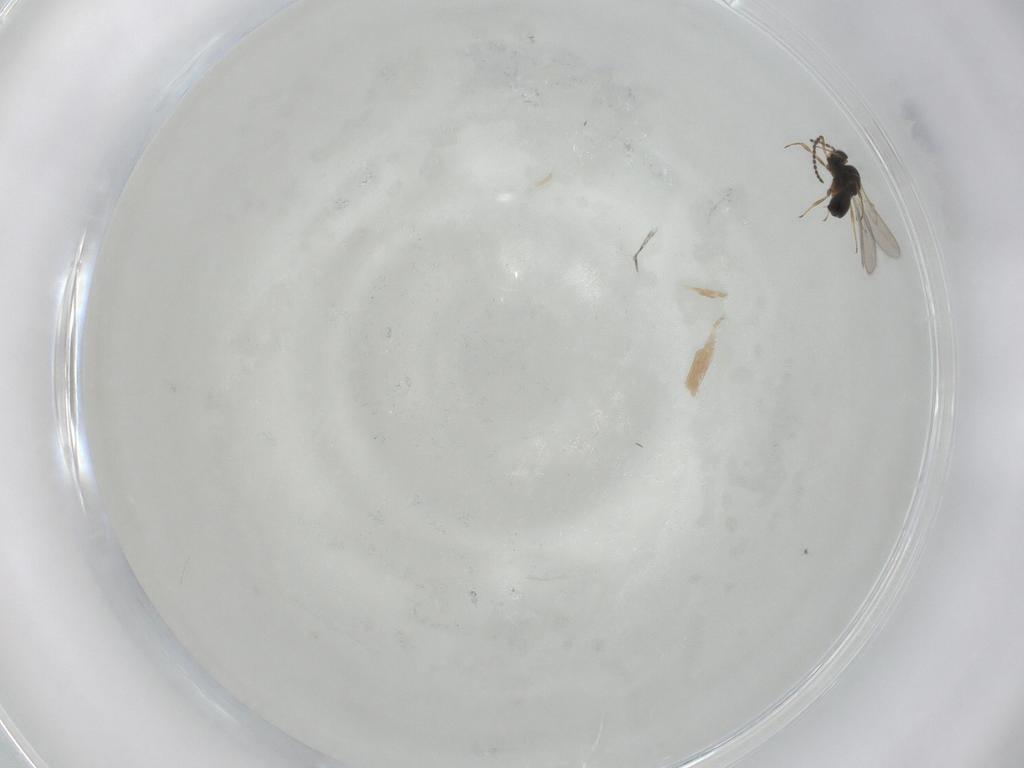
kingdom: Animalia
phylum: Arthropoda
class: Insecta
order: Hymenoptera
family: Scelionidae
